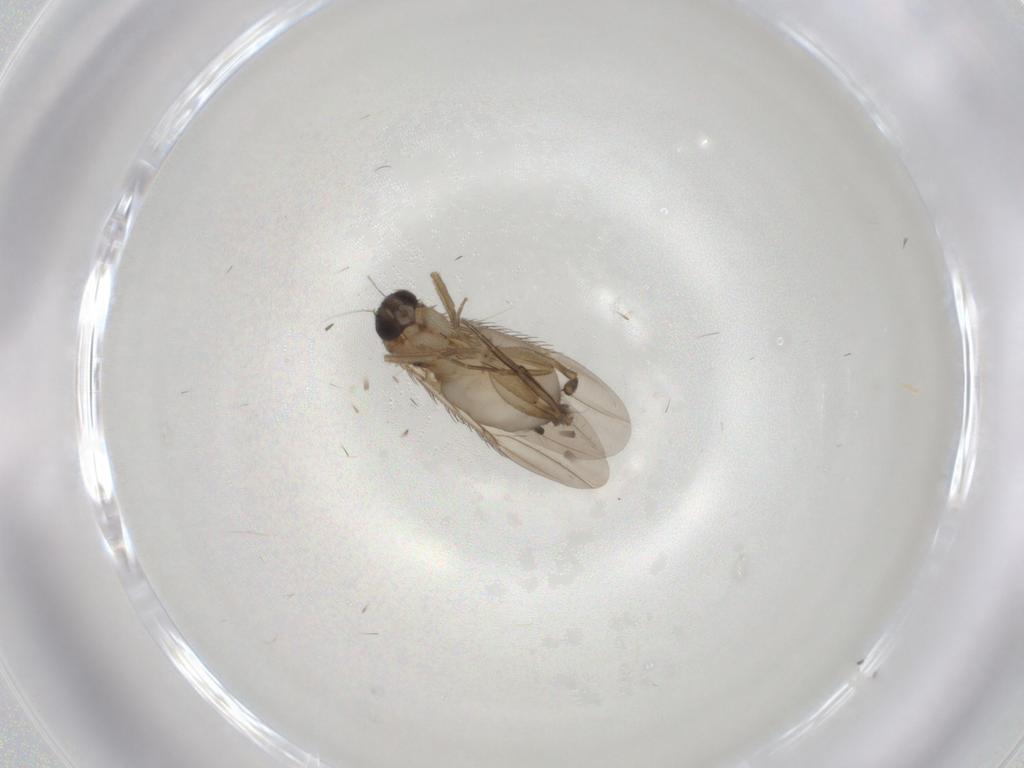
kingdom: Animalia
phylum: Arthropoda
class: Insecta
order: Diptera
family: Phoridae
